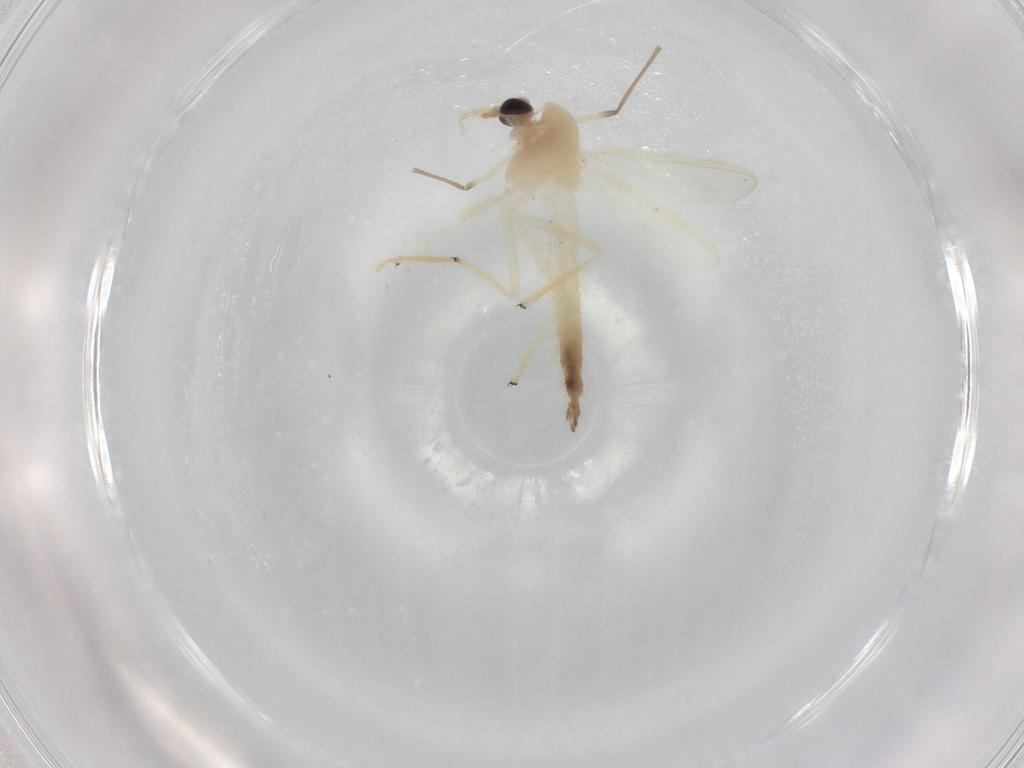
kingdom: Animalia
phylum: Arthropoda
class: Insecta
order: Diptera
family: Chironomidae
